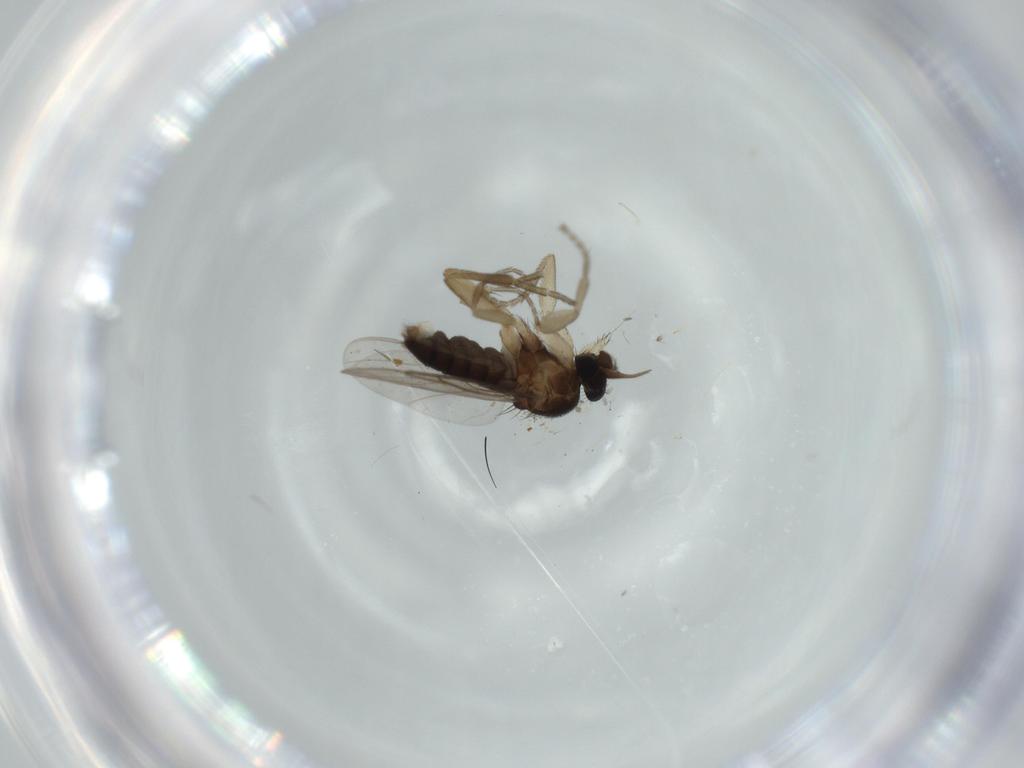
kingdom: Animalia
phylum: Arthropoda
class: Insecta
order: Diptera
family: Phoridae
